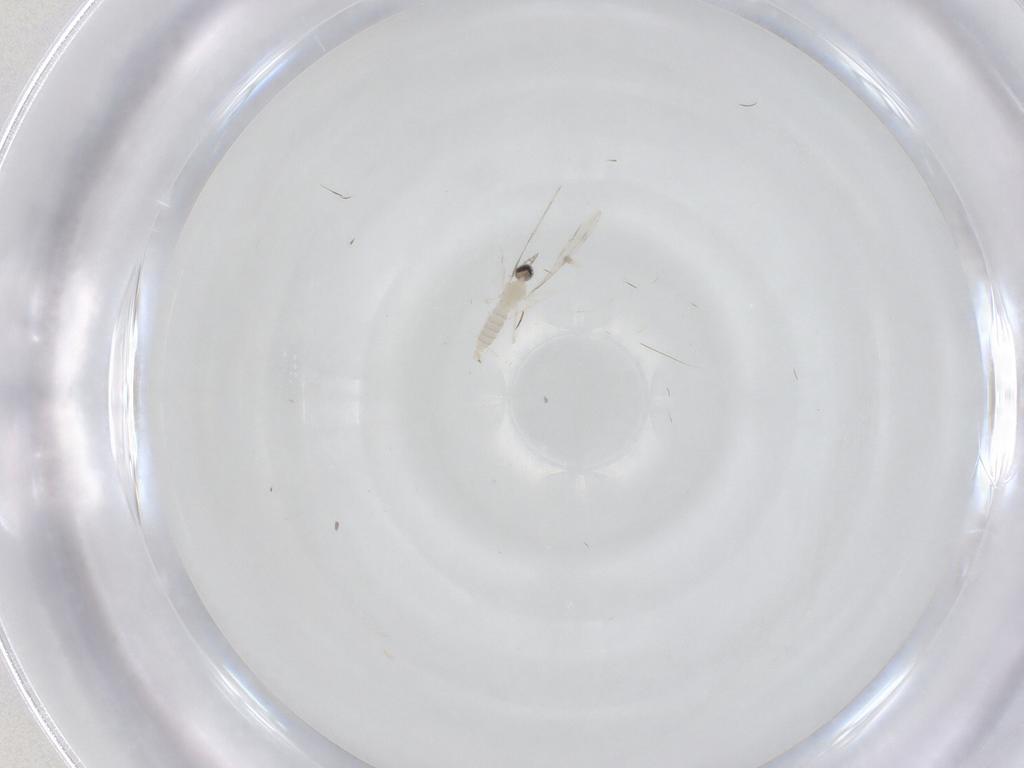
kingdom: Animalia
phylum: Arthropoda
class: Insecta
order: Diptera
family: Cecidomyiidae
